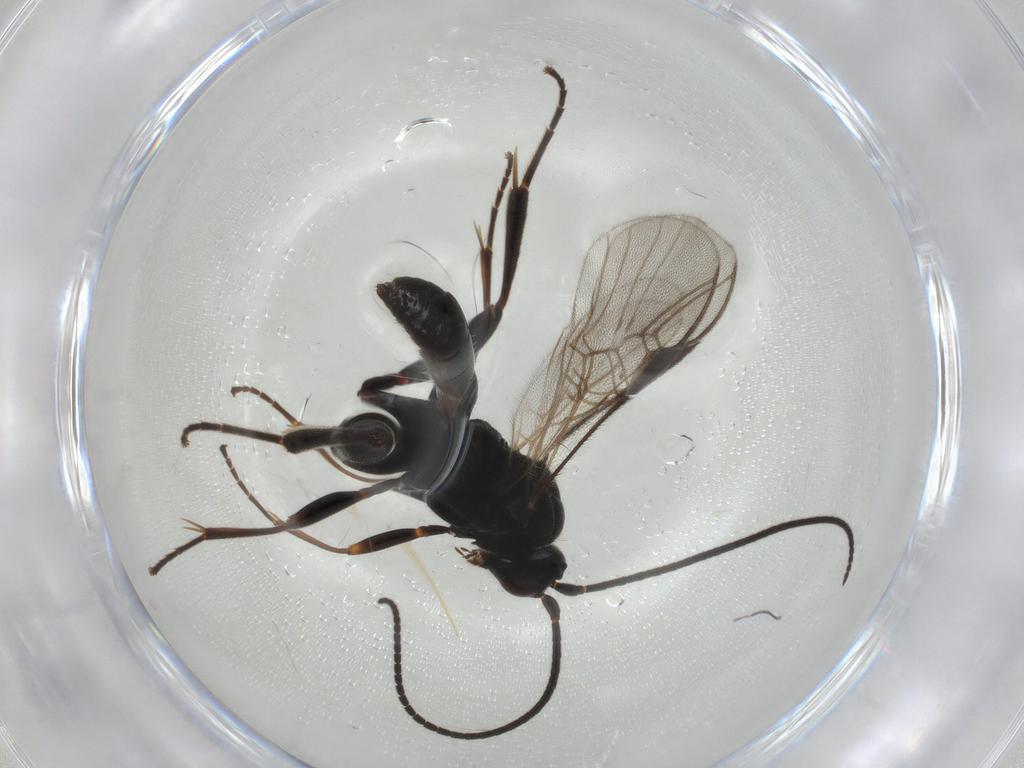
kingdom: Animalia
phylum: Arthropoda
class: Insecta
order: Hymenoptera
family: Braconidae
